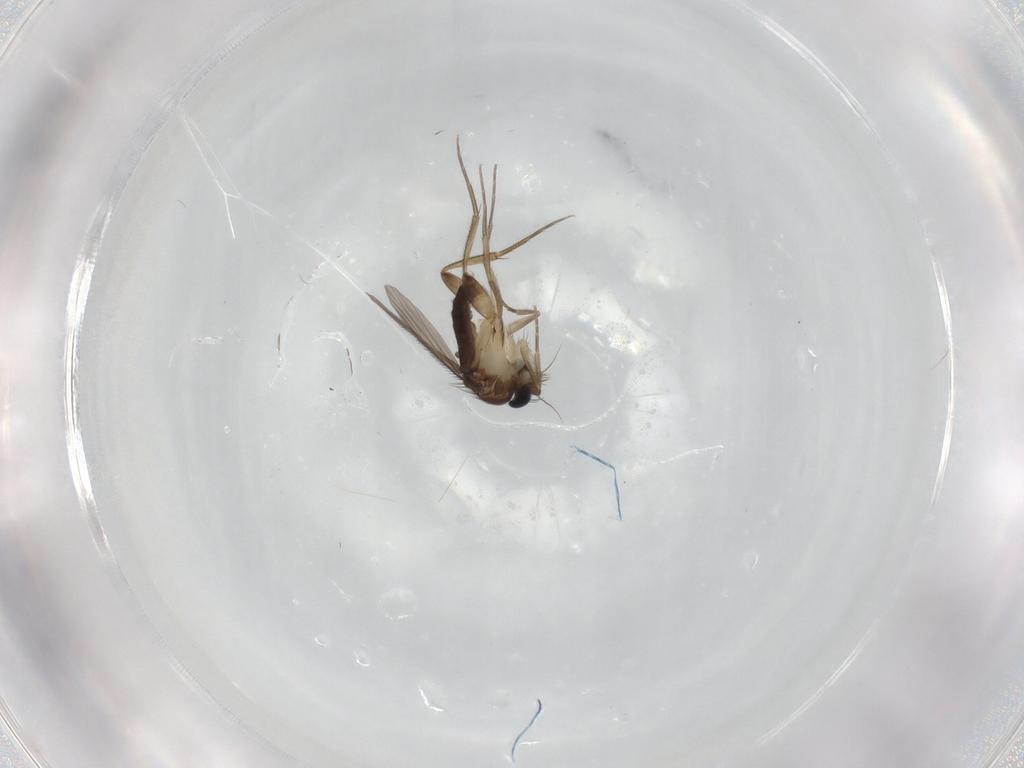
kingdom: Animalia
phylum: Arthropoda
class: Insecta
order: Diptera
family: Phoridae
